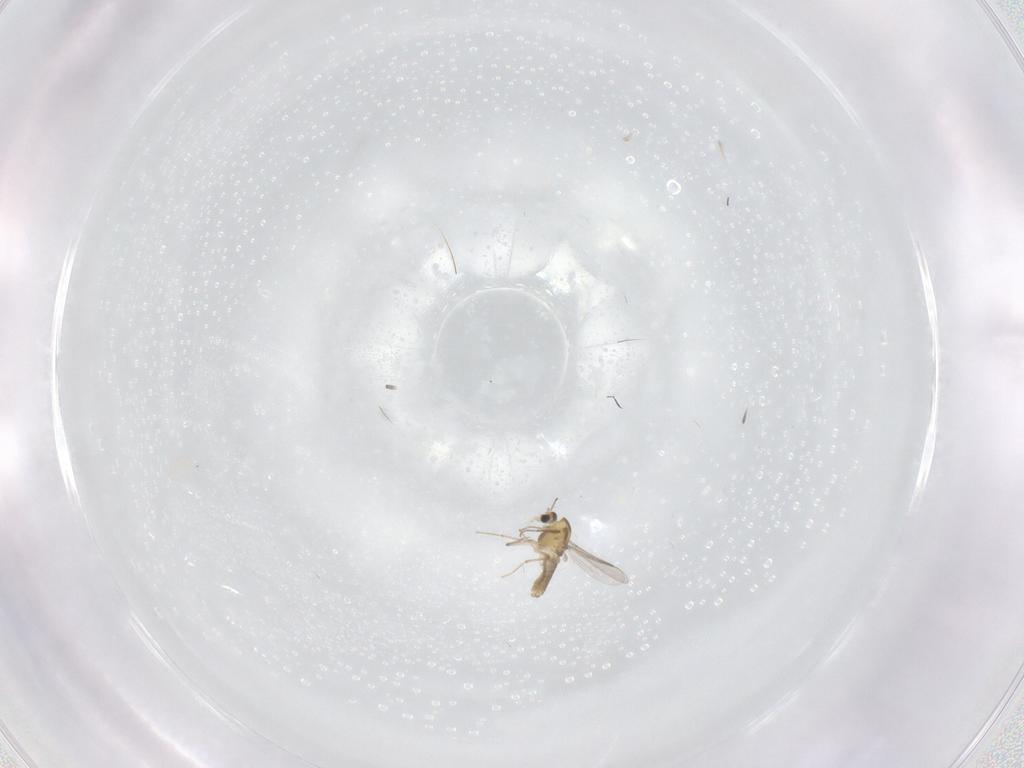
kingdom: Animalia
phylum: Arthropoda
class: Insecta
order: Diptera
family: Chironomidae
